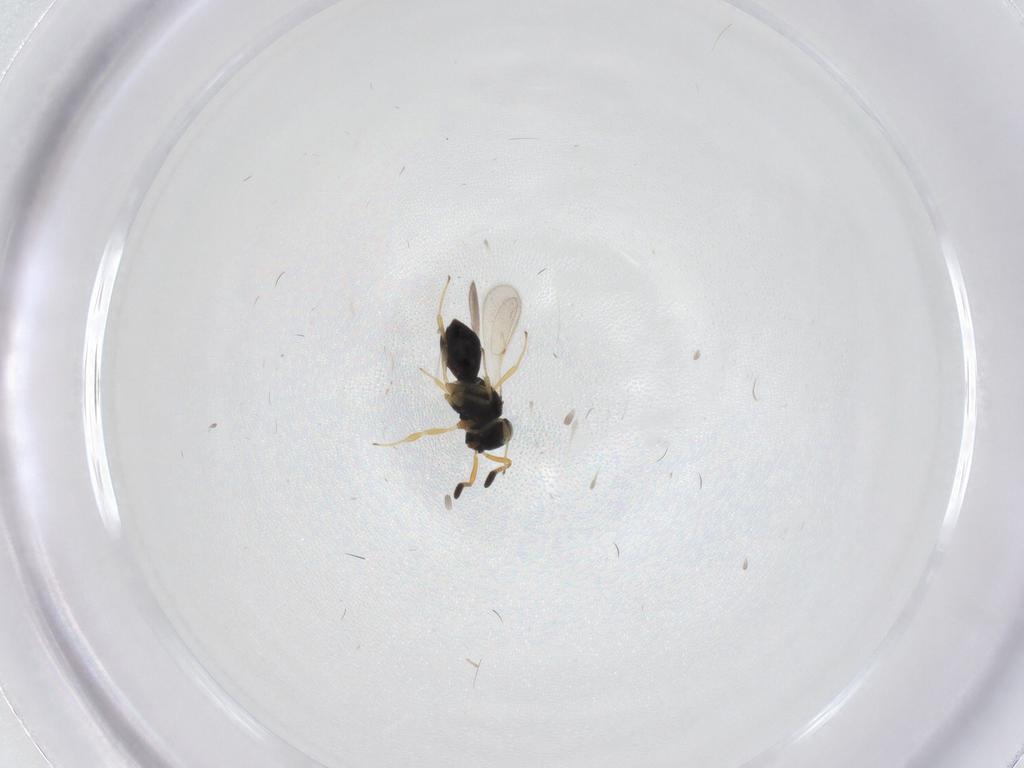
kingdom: Animalia
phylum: Arthropoda
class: Insecta
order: Hymenoptera
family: Scelionidae
